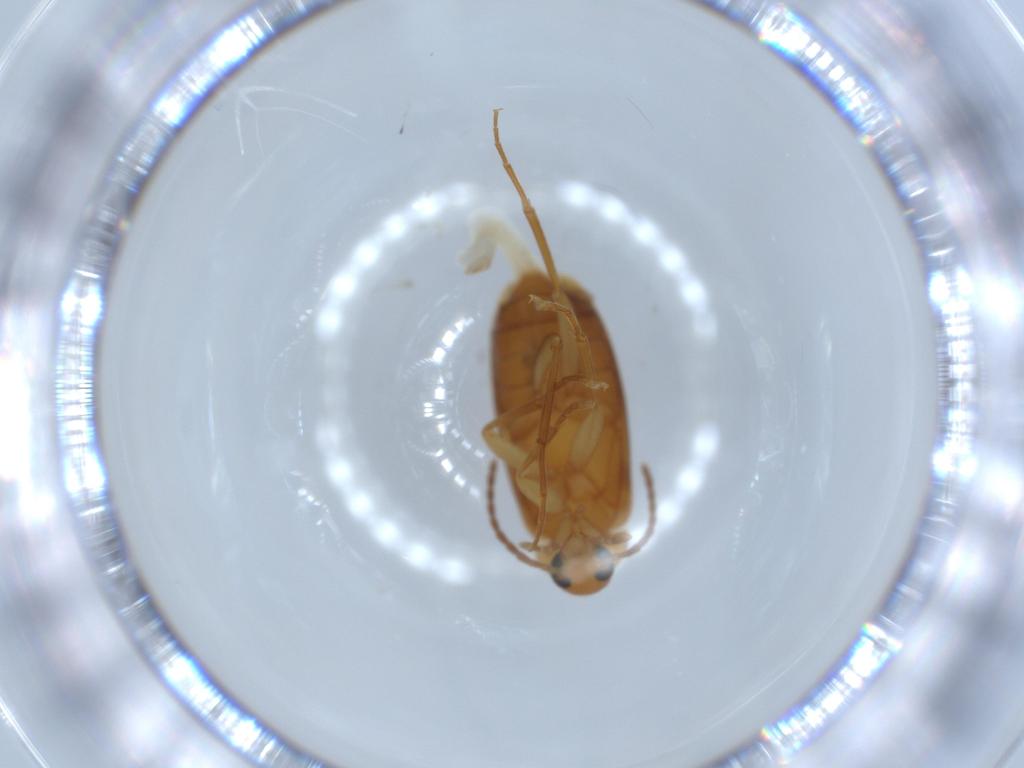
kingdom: Animalia
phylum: Arthropoda
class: Insecta
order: Coleoptera
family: Scraptiidae
